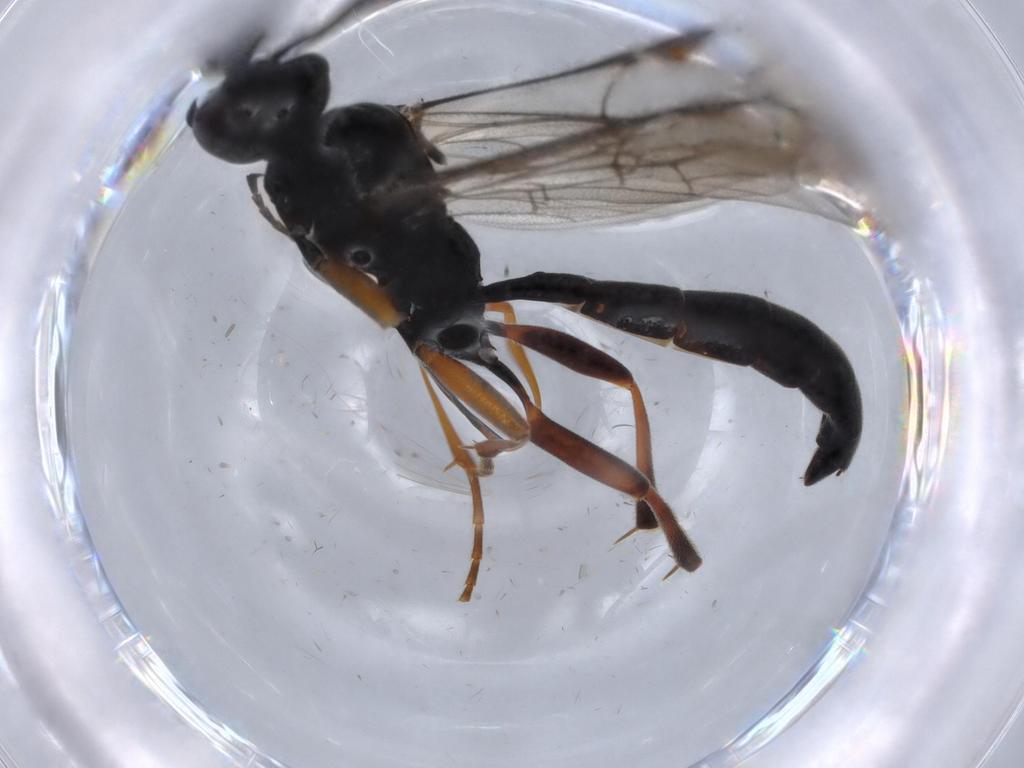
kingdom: Animalia
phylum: Arthropoda
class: Insecta
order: Hymenoptera
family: Torymidae
